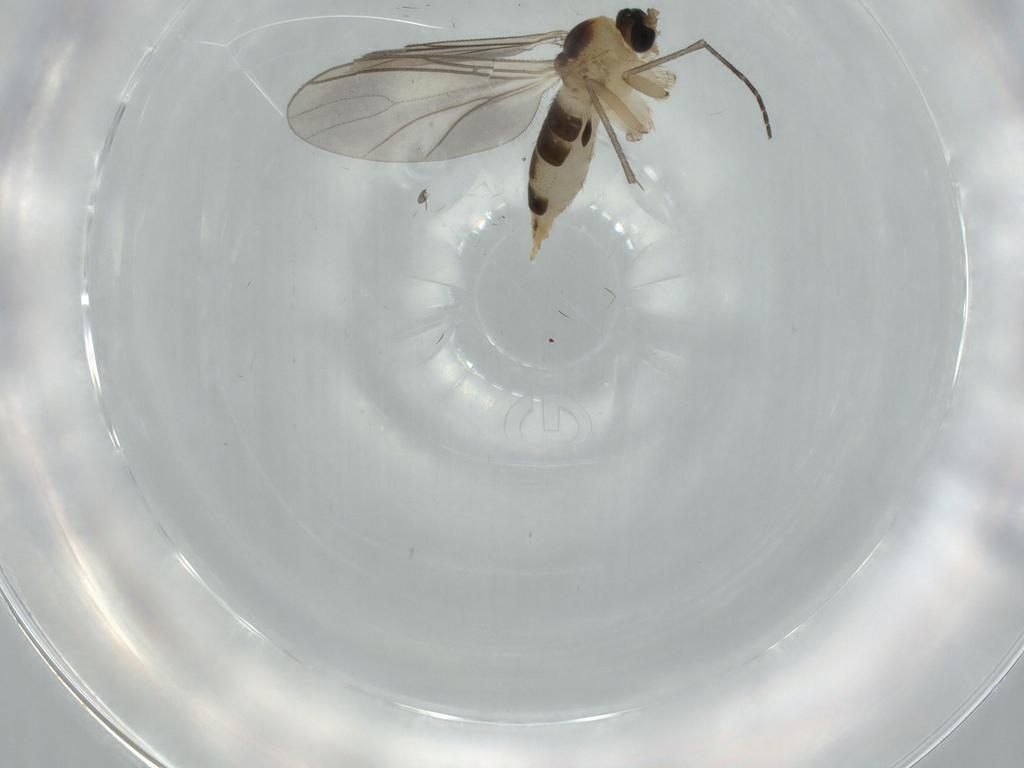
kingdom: Animalia
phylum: Arthropoda
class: Insecta
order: Diptera
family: Sciaridae
